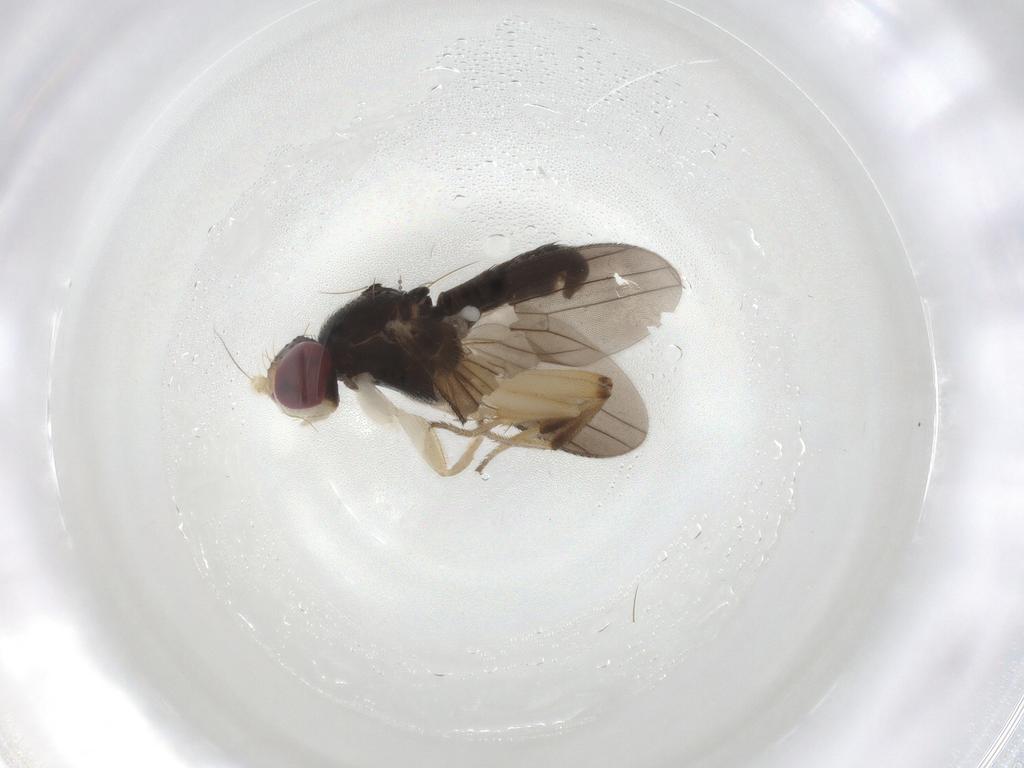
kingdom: Animalia
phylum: Arthropoda
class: Insecta
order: Diptera
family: Clusiidae
